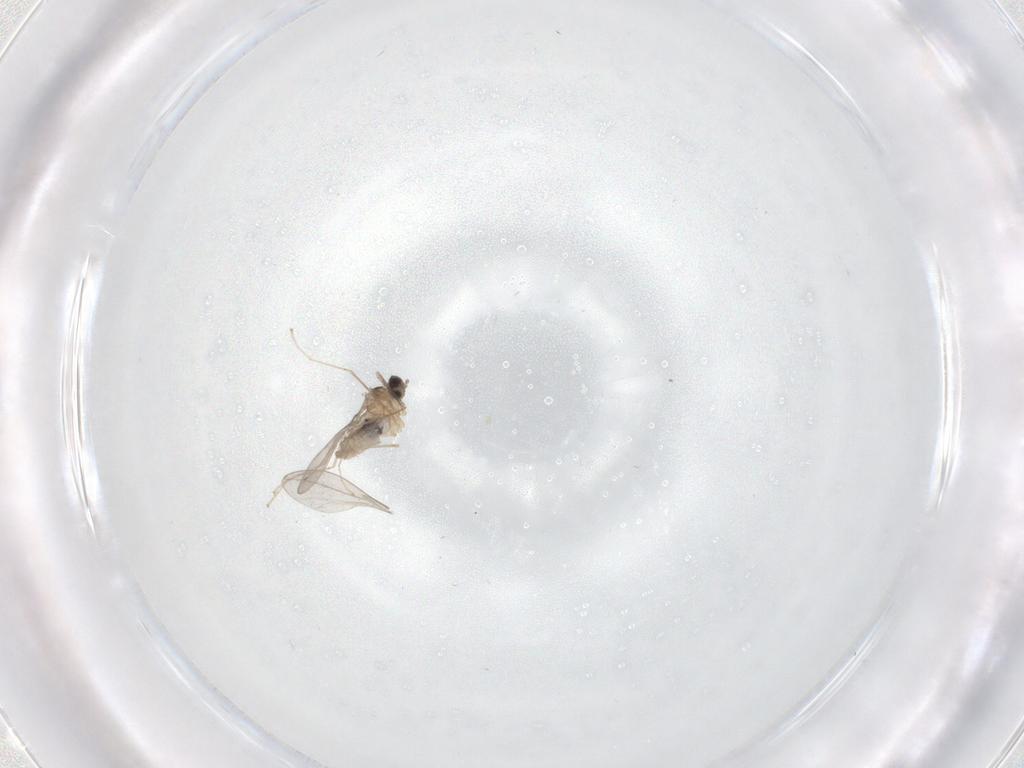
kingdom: Animalia
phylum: Arthropoda
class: Insecta
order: Diptera
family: Cecidomyiidae
